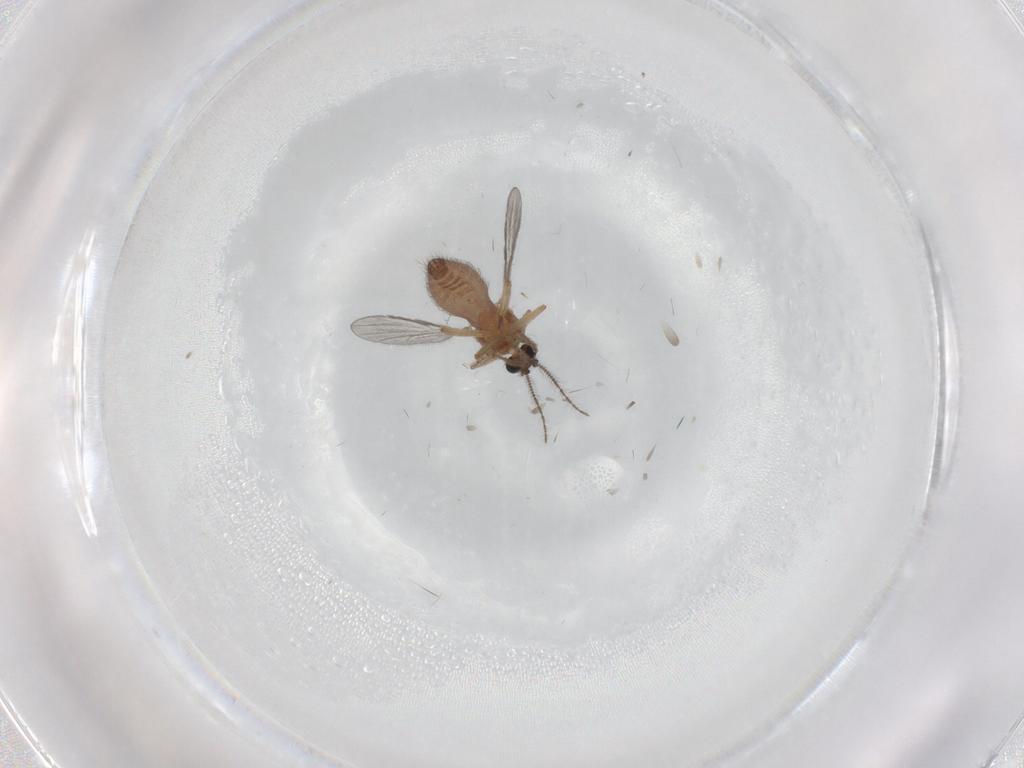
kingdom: Animalia
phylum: Arthropoda
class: Insecta
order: Diptera
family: Ceratopogonidae
